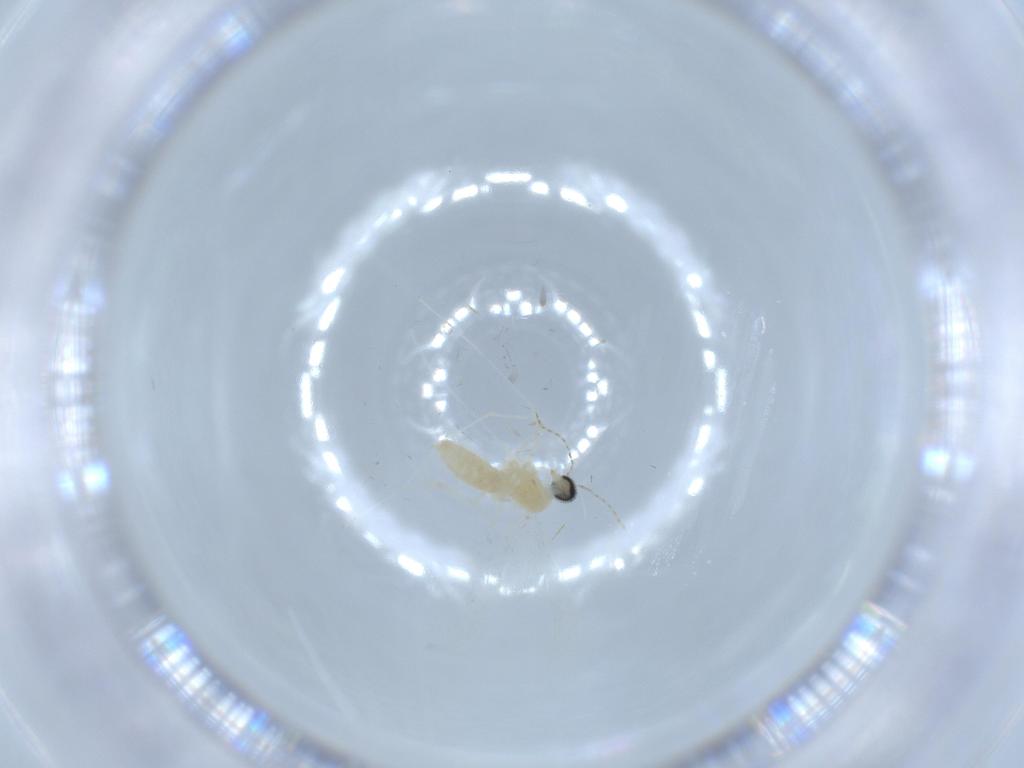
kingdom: Animalia
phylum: Arthropoda
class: Insecta
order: Diptera
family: Cecidomyiidae
